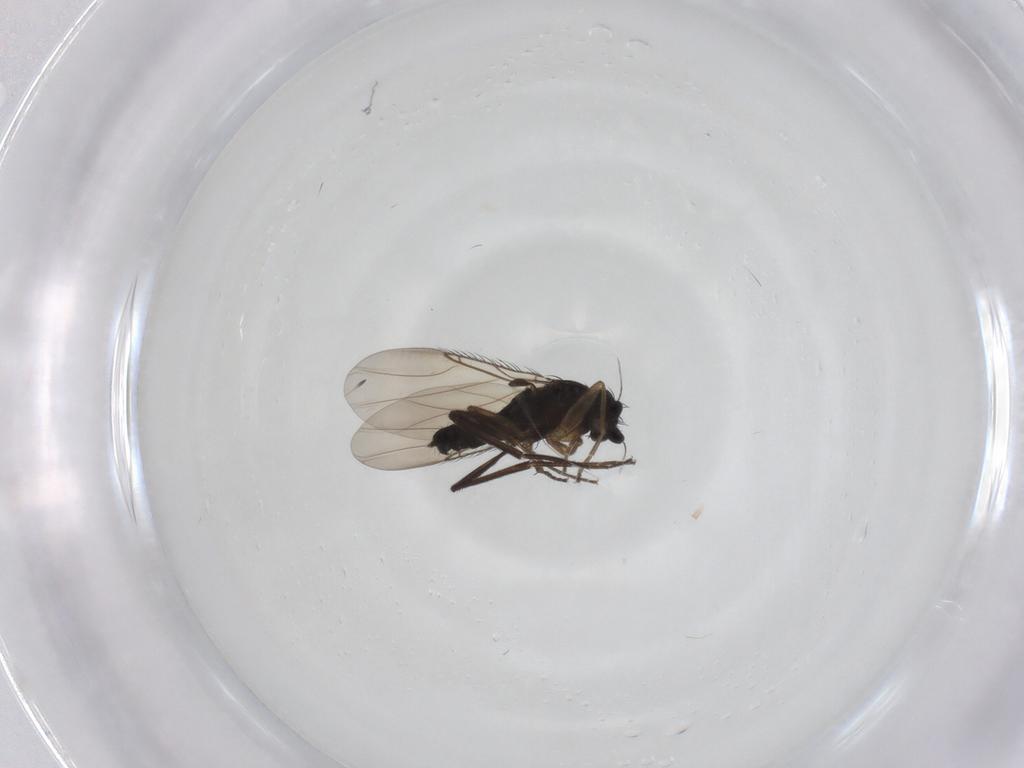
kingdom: Animalia
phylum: Arthropoda
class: Insecta
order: Diptera
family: Phoridae
